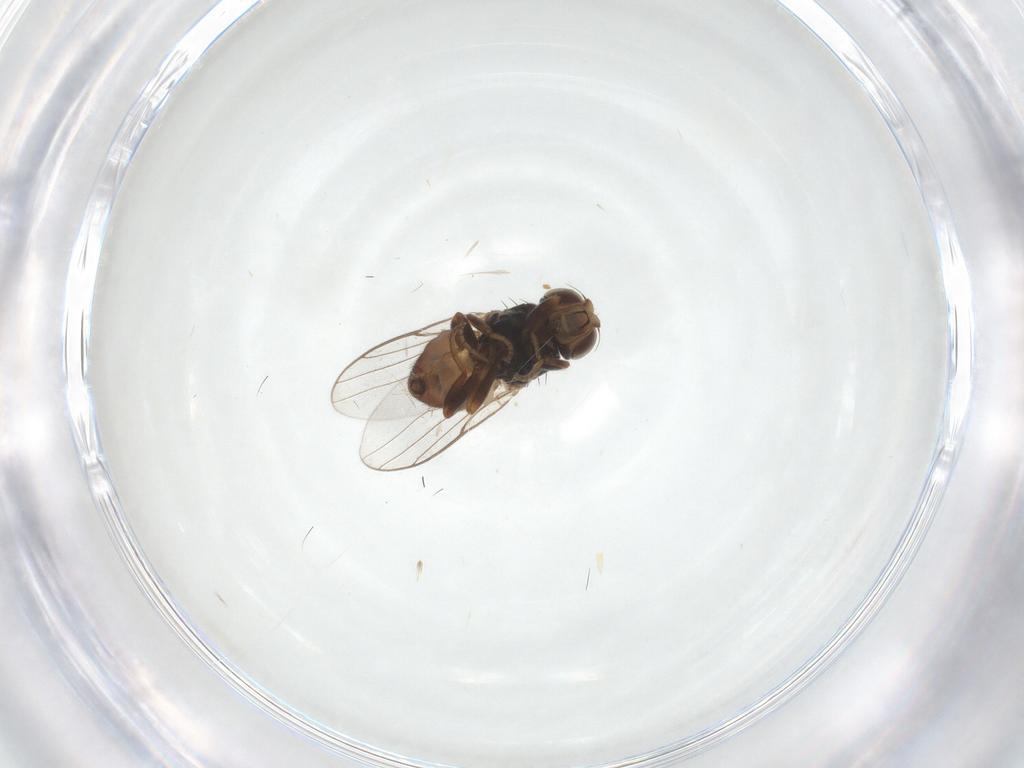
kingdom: Animalia
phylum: Arthropoda
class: Insecta
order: Diptera
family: Chloropidae
